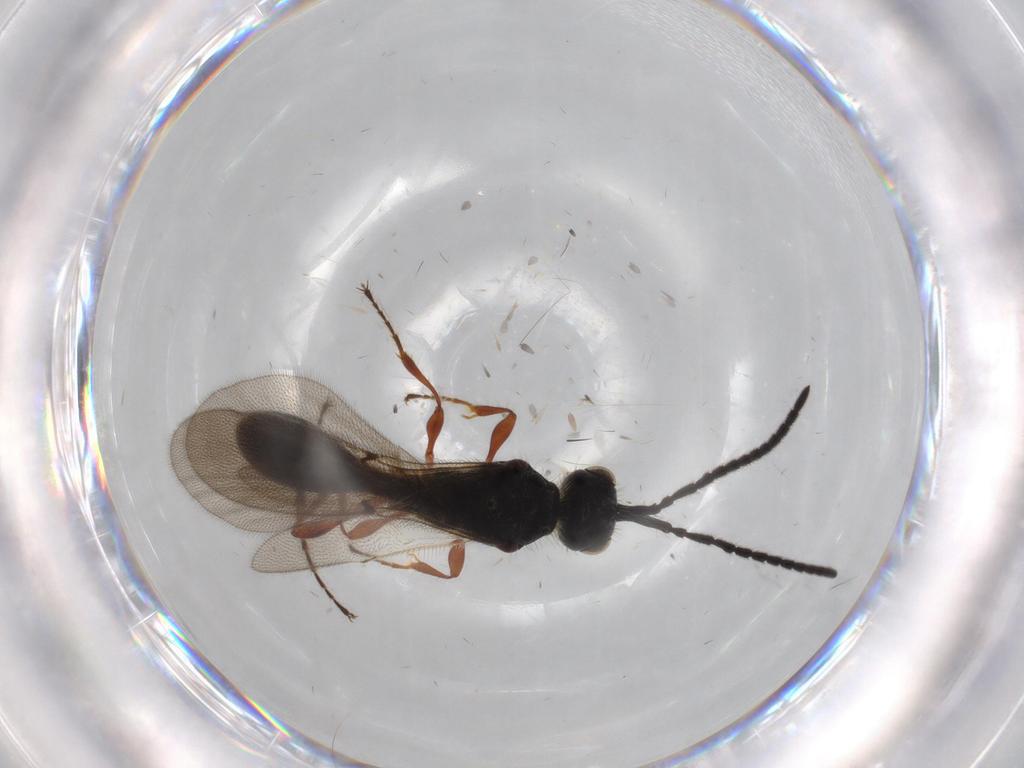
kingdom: Animalia
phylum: Arthropoda
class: Insecta
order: Hymenoptera
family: Diapriidae
